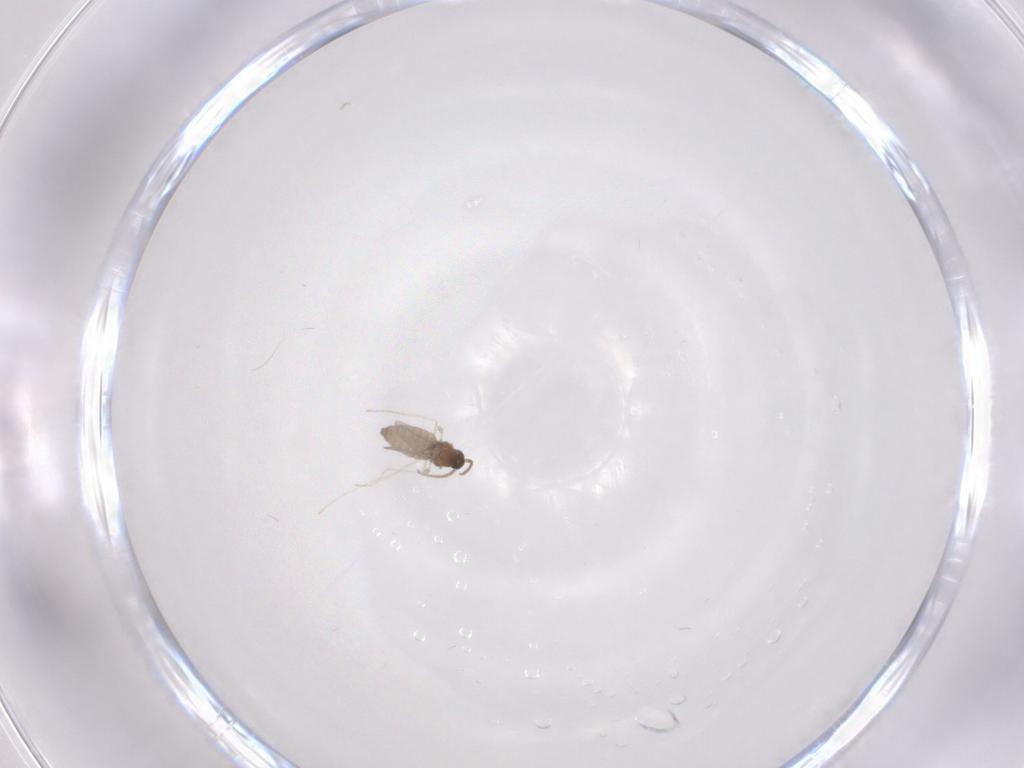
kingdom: Animalia
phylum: Arthropoda
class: Insecta
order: Diptera
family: Cecidomyiidae
